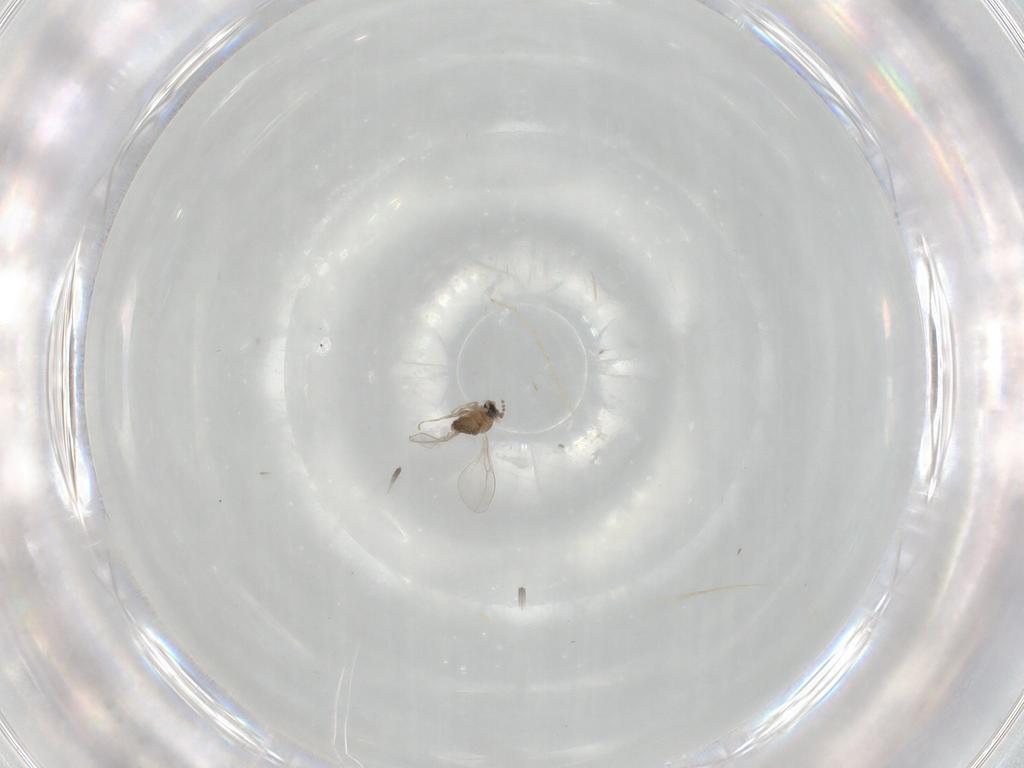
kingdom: Animalia
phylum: Arthropoda
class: Insecta
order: Diptera
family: Cecidomyiidae
